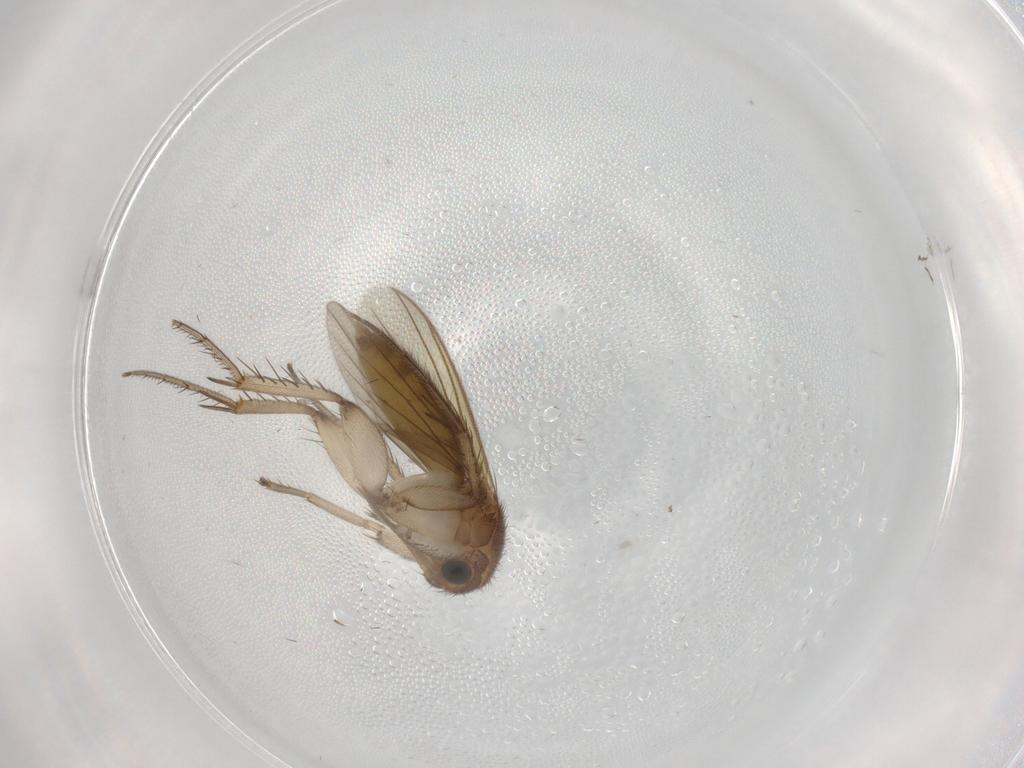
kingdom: Animalia
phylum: Arthropoda
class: Insecta
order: Diptera
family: Mycetophilidae
